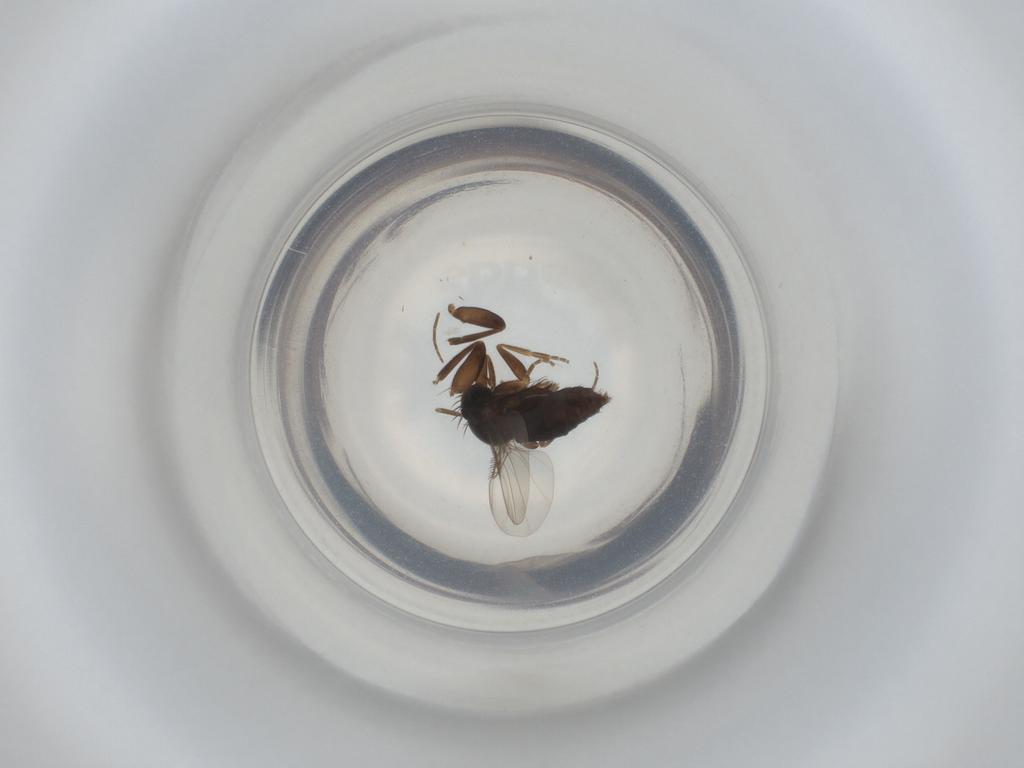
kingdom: Animalia
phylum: Arthropoda
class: Insecta
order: Diptera
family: Phoridae
